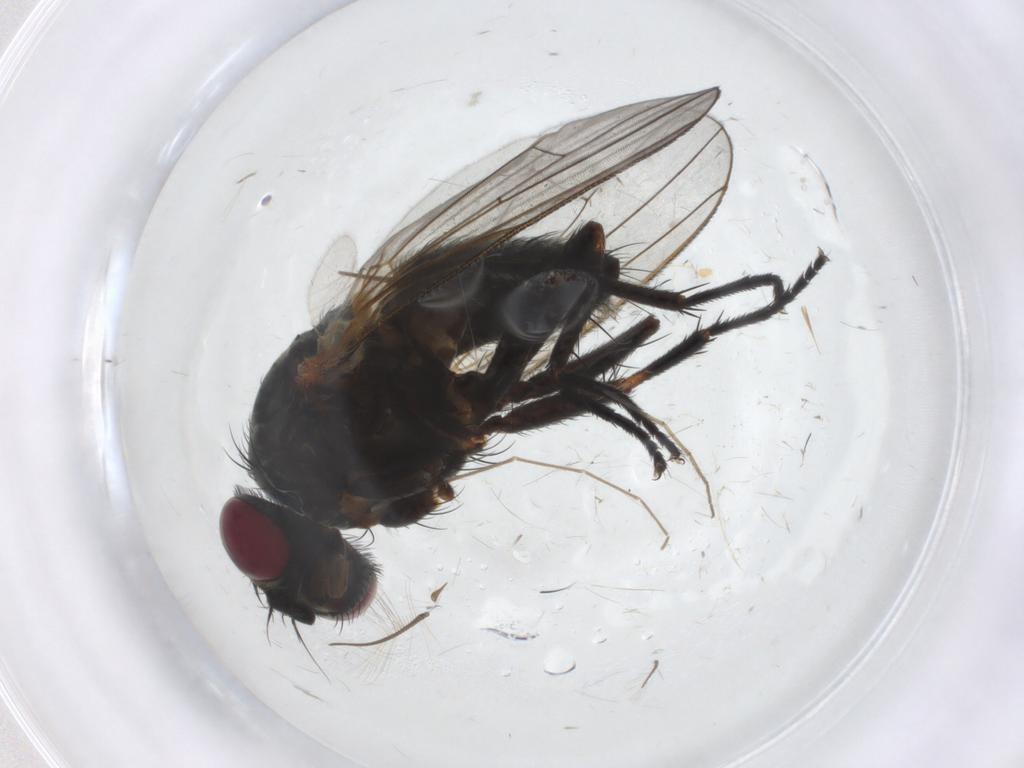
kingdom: Animalia
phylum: Arthropoda
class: Insecta
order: Diptera
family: Fannia
